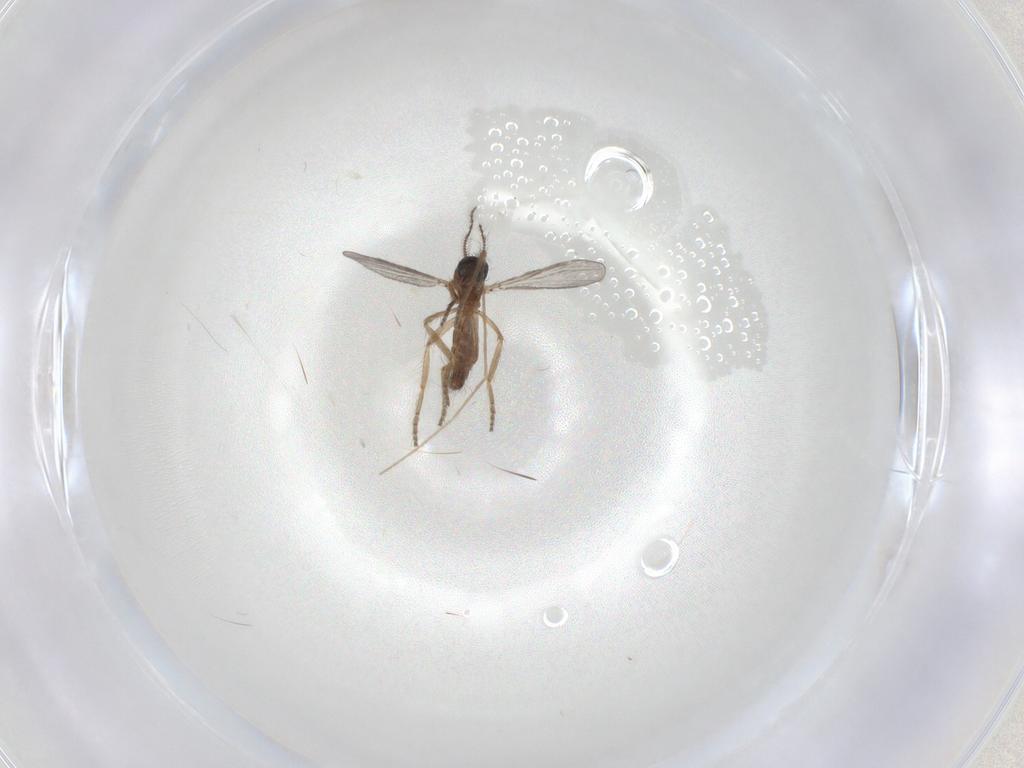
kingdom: Animalia
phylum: Arthropoda
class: Insecta
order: Diptera
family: Ceratopogonidae
